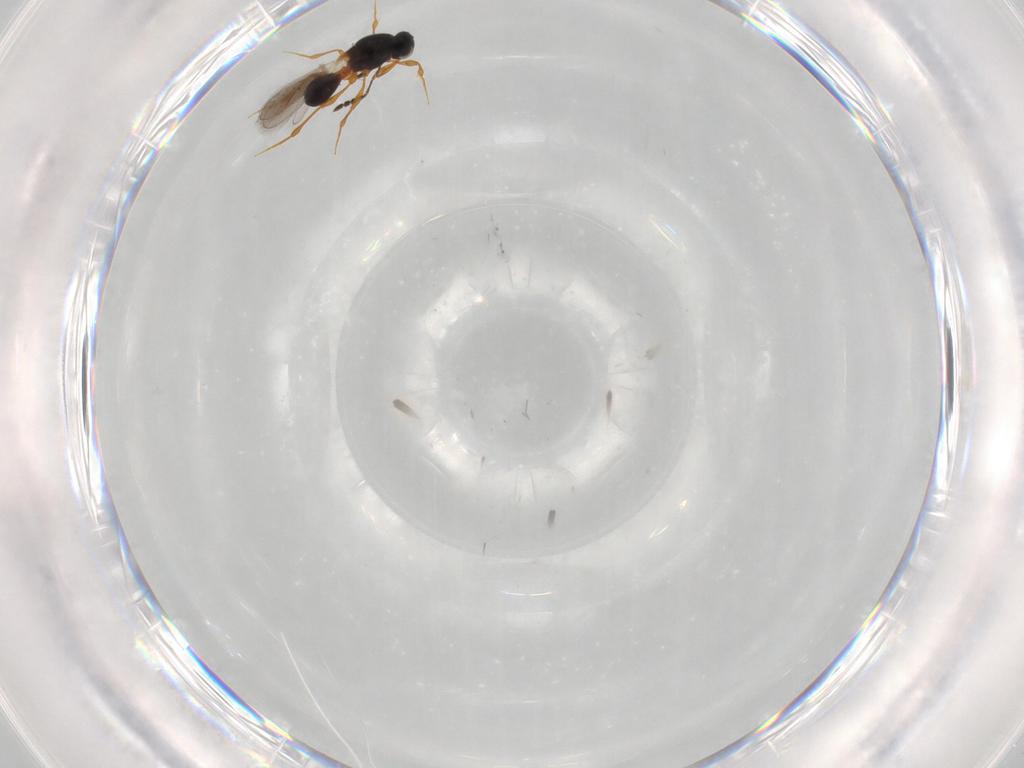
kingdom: Animalia
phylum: Arthropoda
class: Insecta
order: Hymenoptera
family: Platygastridae
